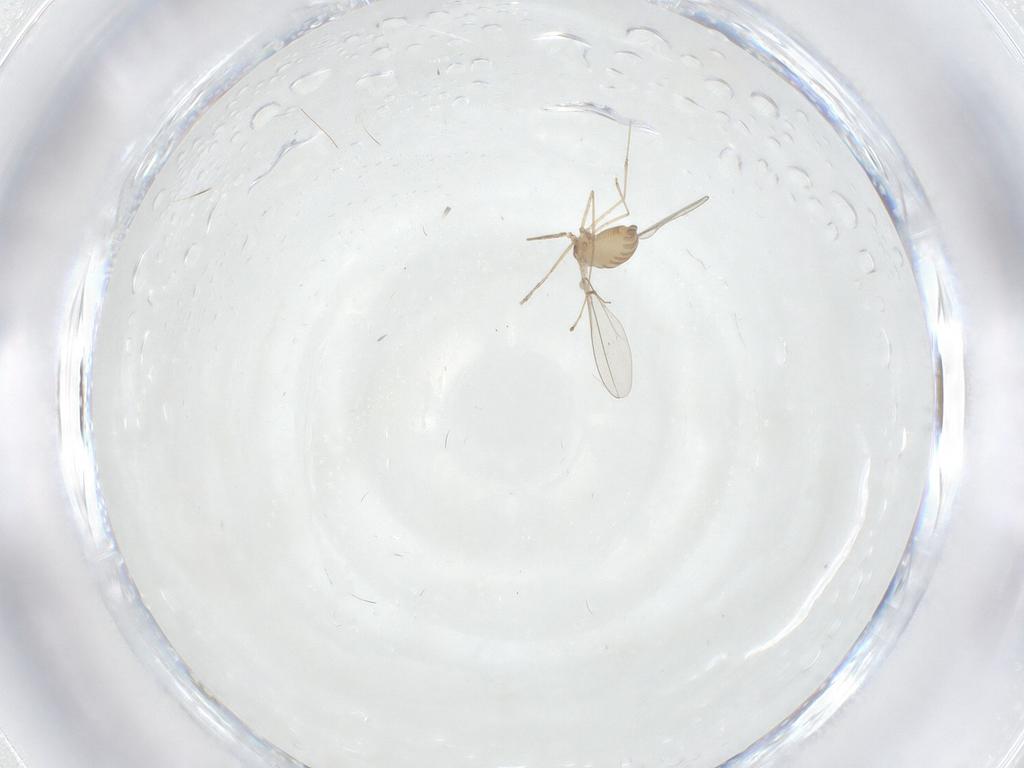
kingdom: Animalia
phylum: Arthropoda
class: Insecta
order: Diptera
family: Cecidomyiidae
